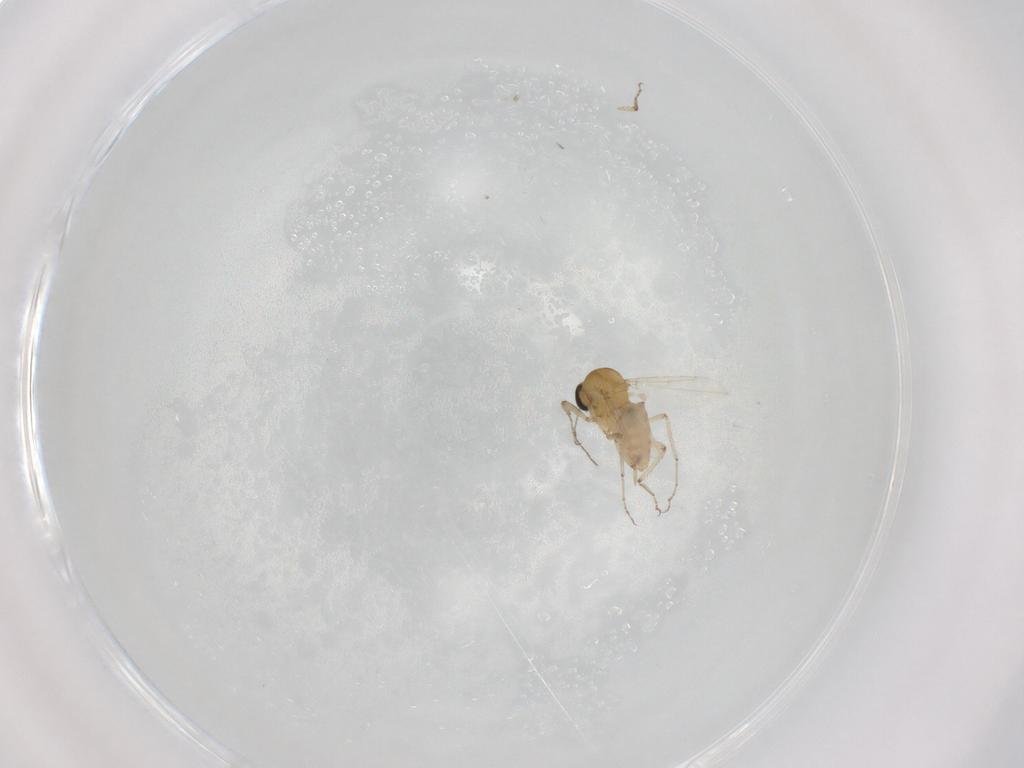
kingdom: Animalia
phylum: Arthropoda
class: Insecta
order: Diptera
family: Ceratopogonidae
